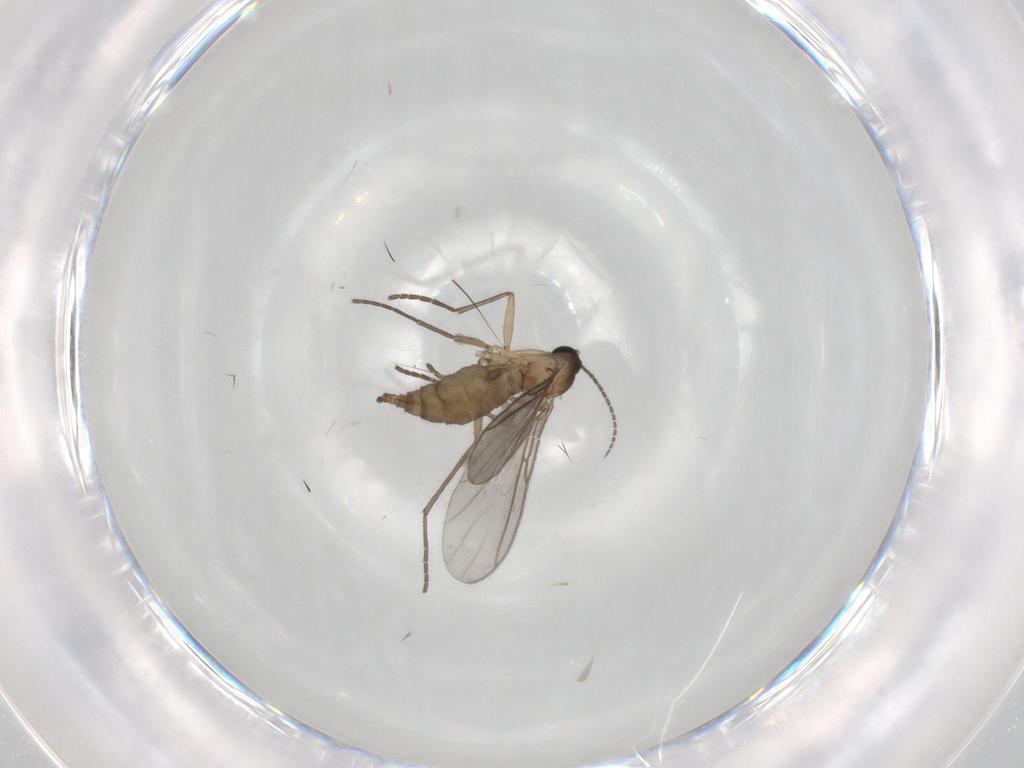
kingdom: Animalia
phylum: Arthropoda
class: Insecta
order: Diptera
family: Sciaridae
